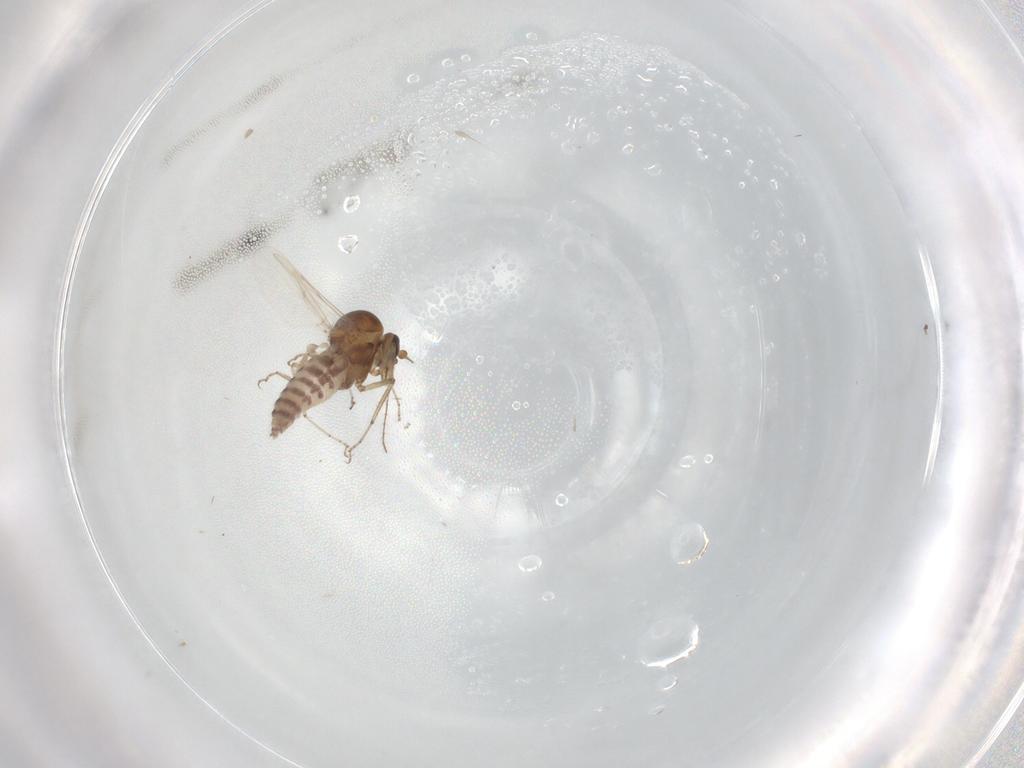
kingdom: Animalia
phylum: Arthropoda
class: Insecta
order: Diptera
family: Ceratopogonidae
